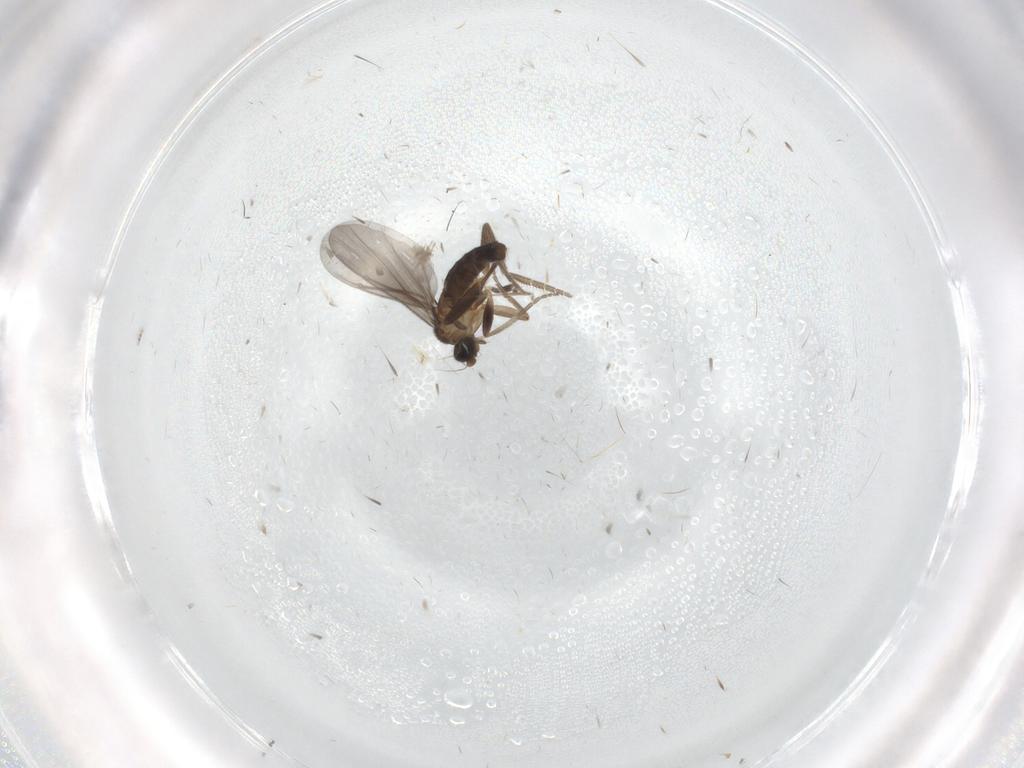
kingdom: Animalia
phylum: Arthropoda
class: Insecta
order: Diptera
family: Phoridae
